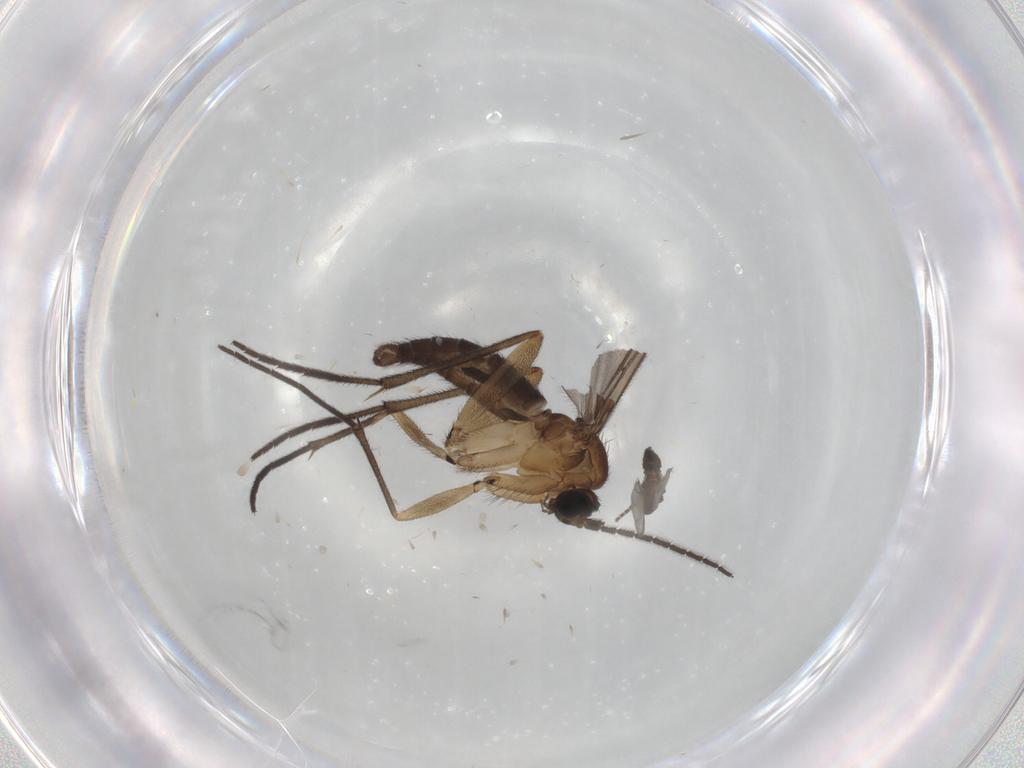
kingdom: Animalia
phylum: Arthropoda
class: Insecta
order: Diptera
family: Sciaridae
